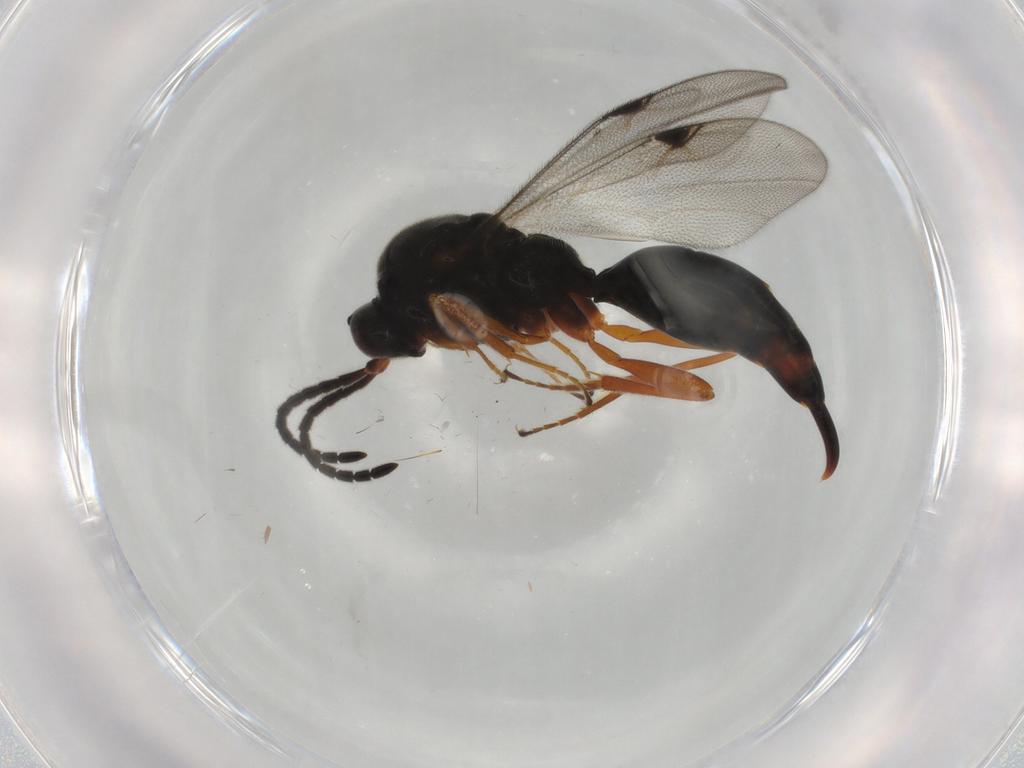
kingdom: Animalia
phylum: Arthropoda
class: Insecta
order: Hymenoptera
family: Proctotrupidae
